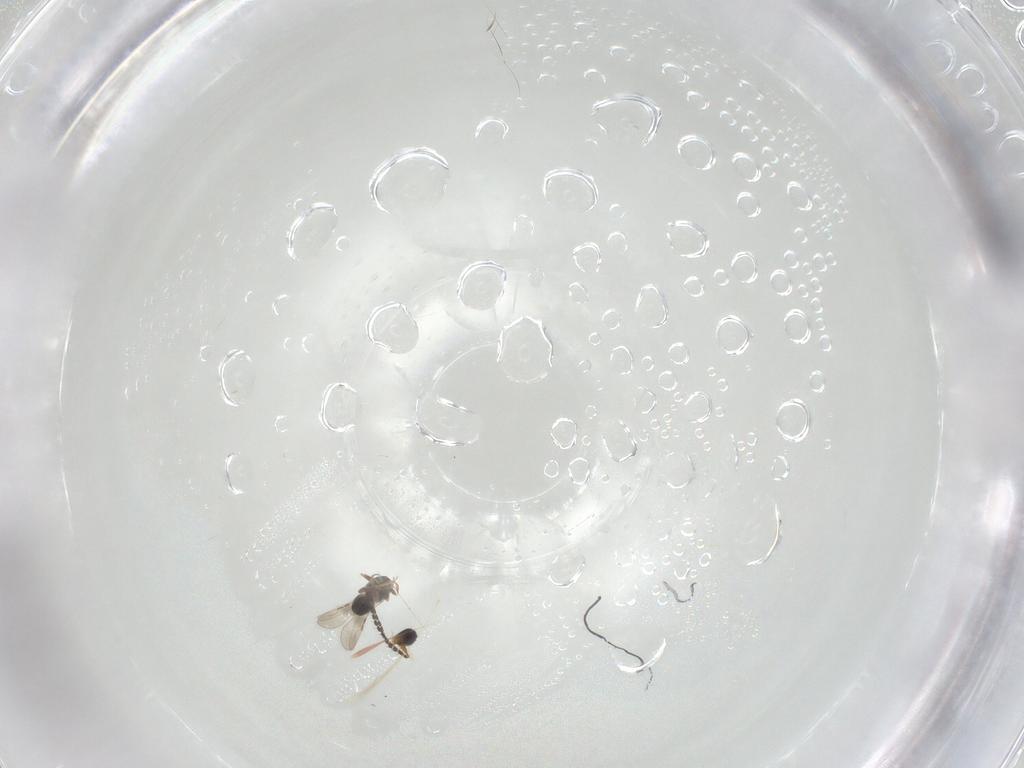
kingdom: Animalia
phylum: Arthropoda
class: Insecta
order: Hymenoptera
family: Ceraphronidae
